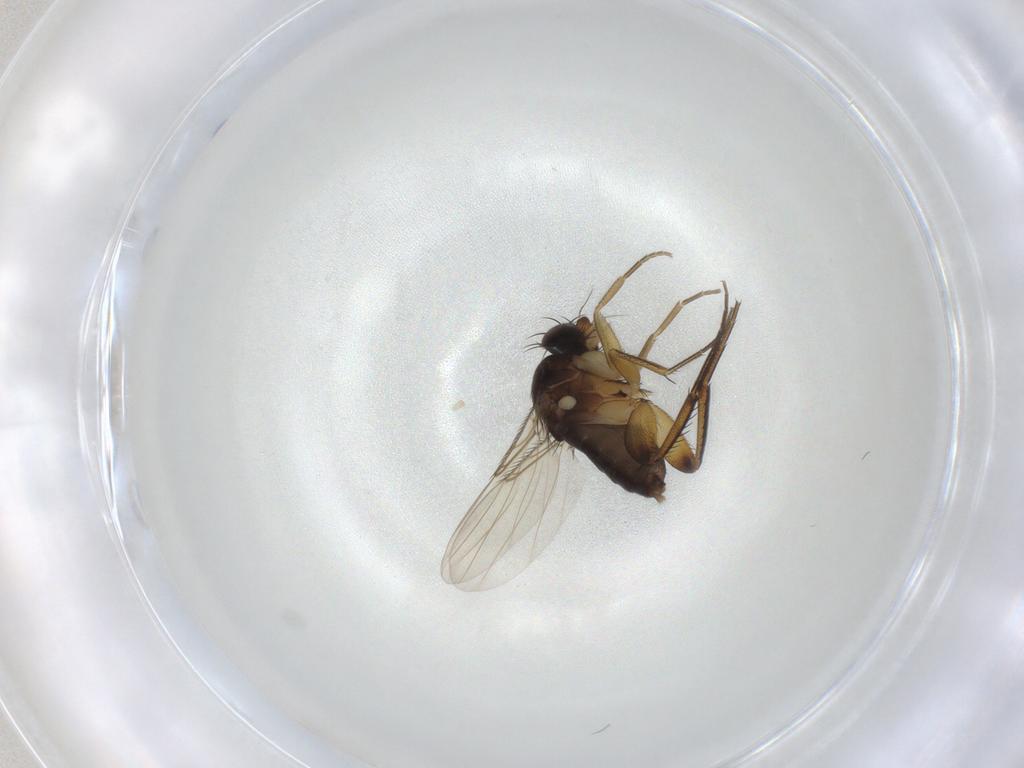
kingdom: Animalia
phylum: Arthropoda
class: Insecta
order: Diptera
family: Phoridae
